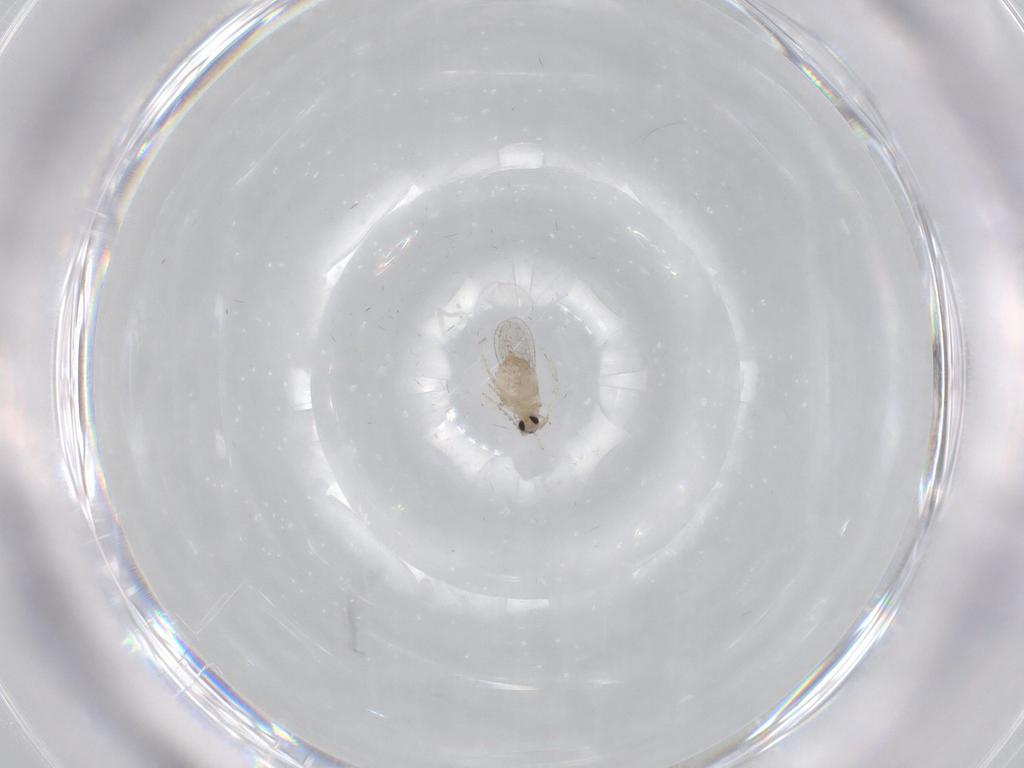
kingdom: Animalia
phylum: Arthropoda
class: Insecta
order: Diptera
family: Cecidomyiidae
